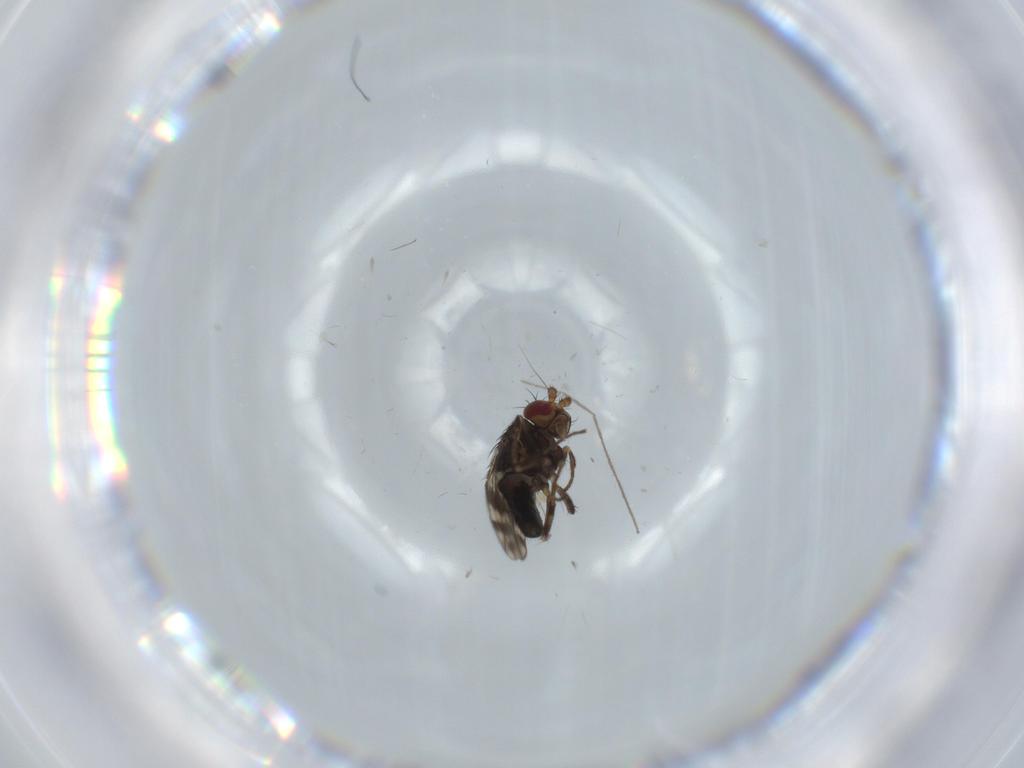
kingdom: Animalia
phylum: Arthropoda
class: Insecta
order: Diptera
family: Sphaeroceridae
